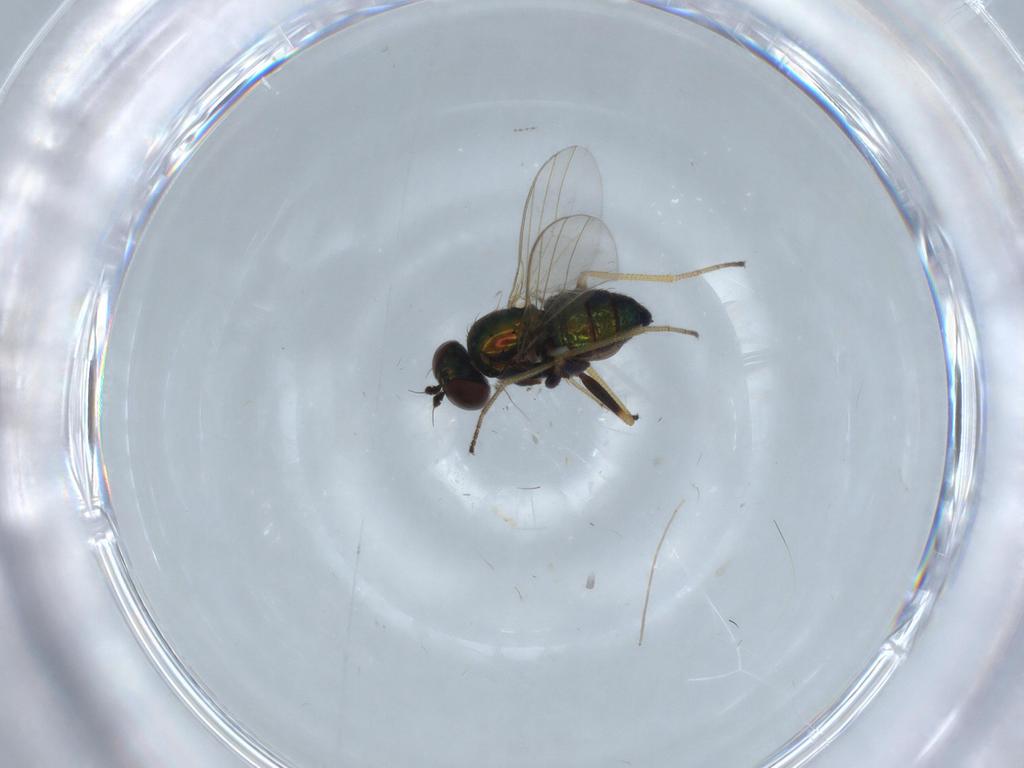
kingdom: Animalia
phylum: Arthropoda
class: Insecta
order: Diptera
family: Dolichopodidae
